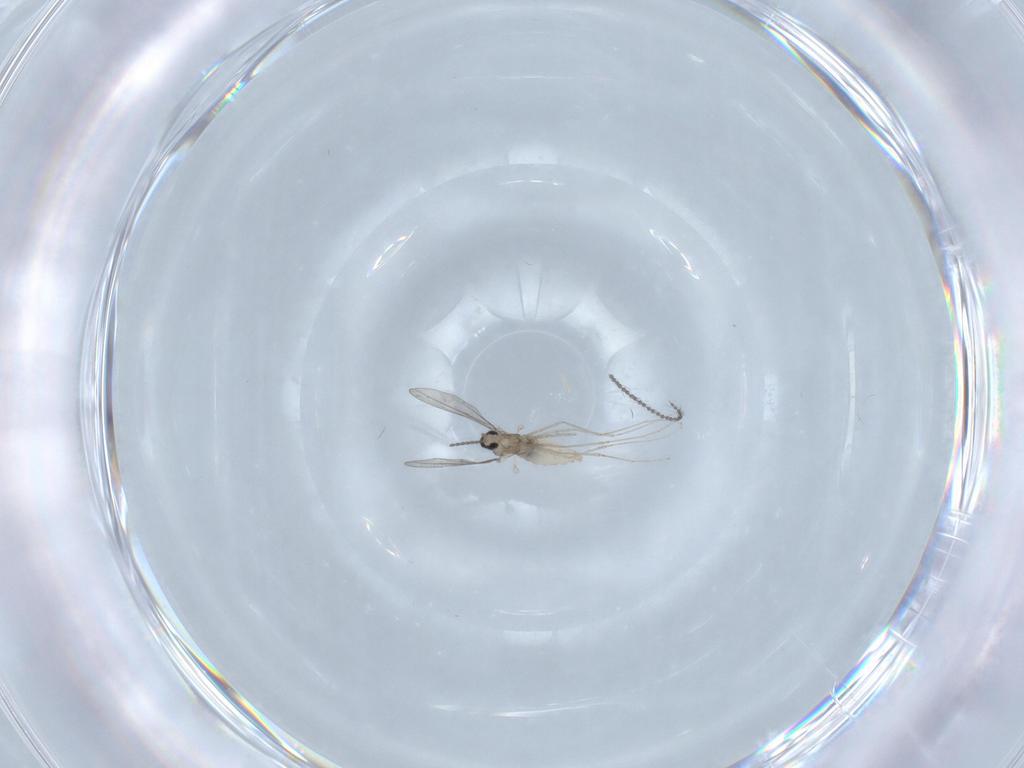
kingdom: Animalia
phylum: Arthropoda
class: Insecta
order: Diptera
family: Cecidomyiidae
